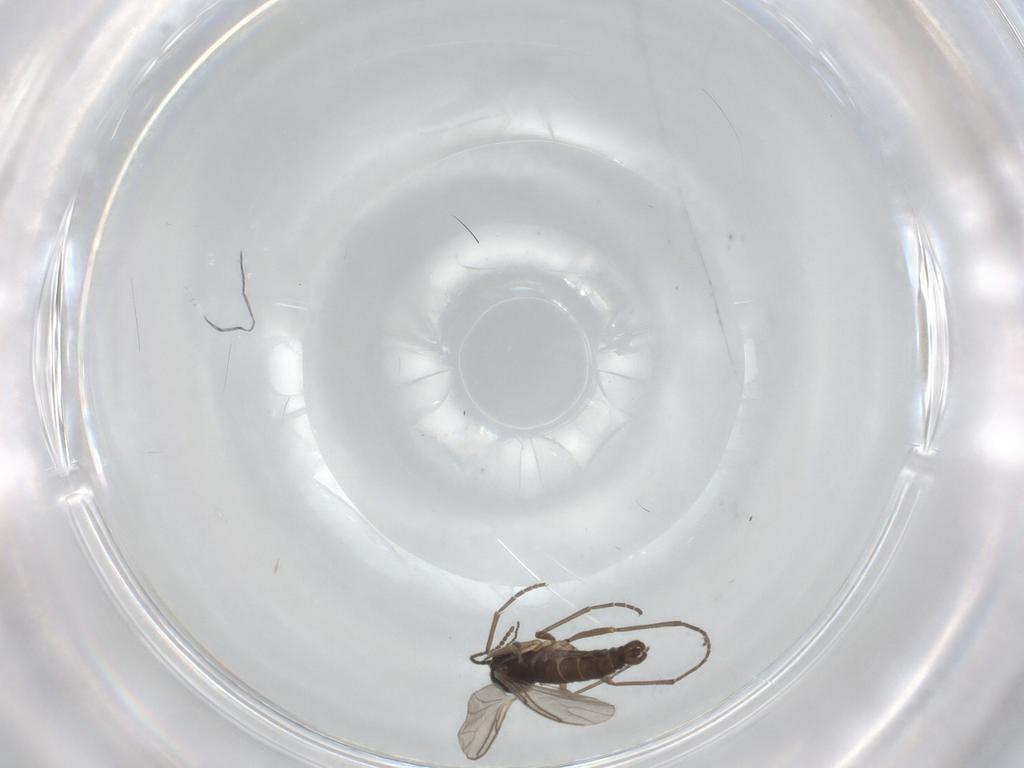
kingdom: Animalia
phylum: Arthropoda
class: Insecta
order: Diptera
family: Chironomidae
